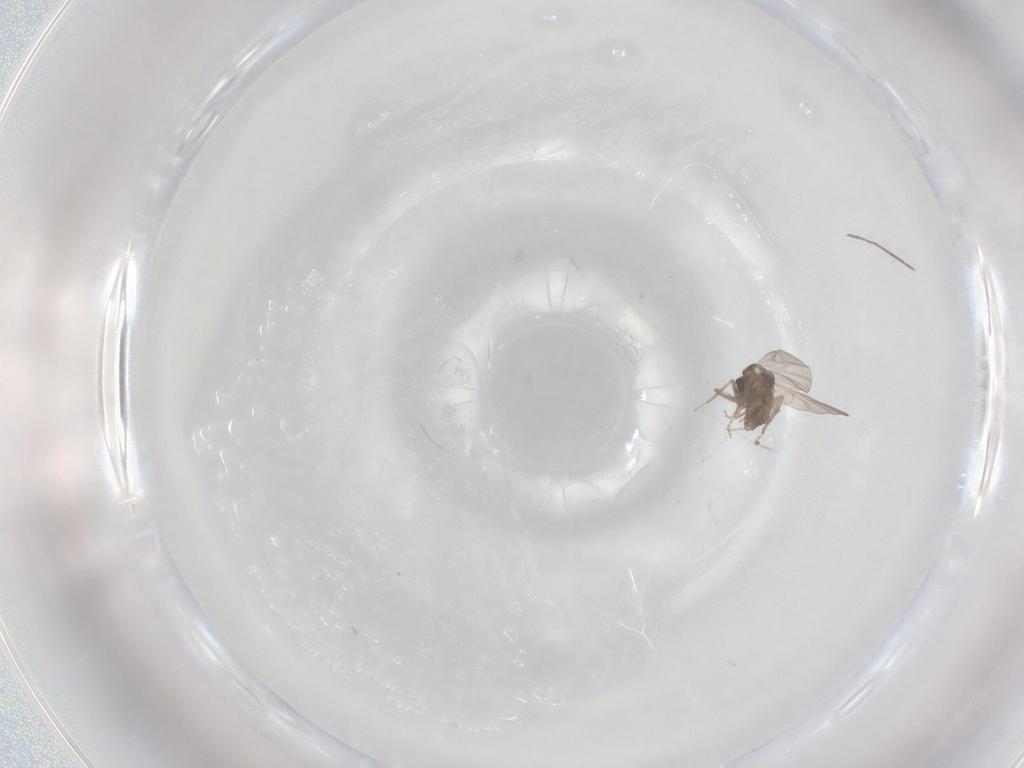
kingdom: Animalia
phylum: Arthropoda
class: Insecta
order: Diptera
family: Ceratopogonidae
